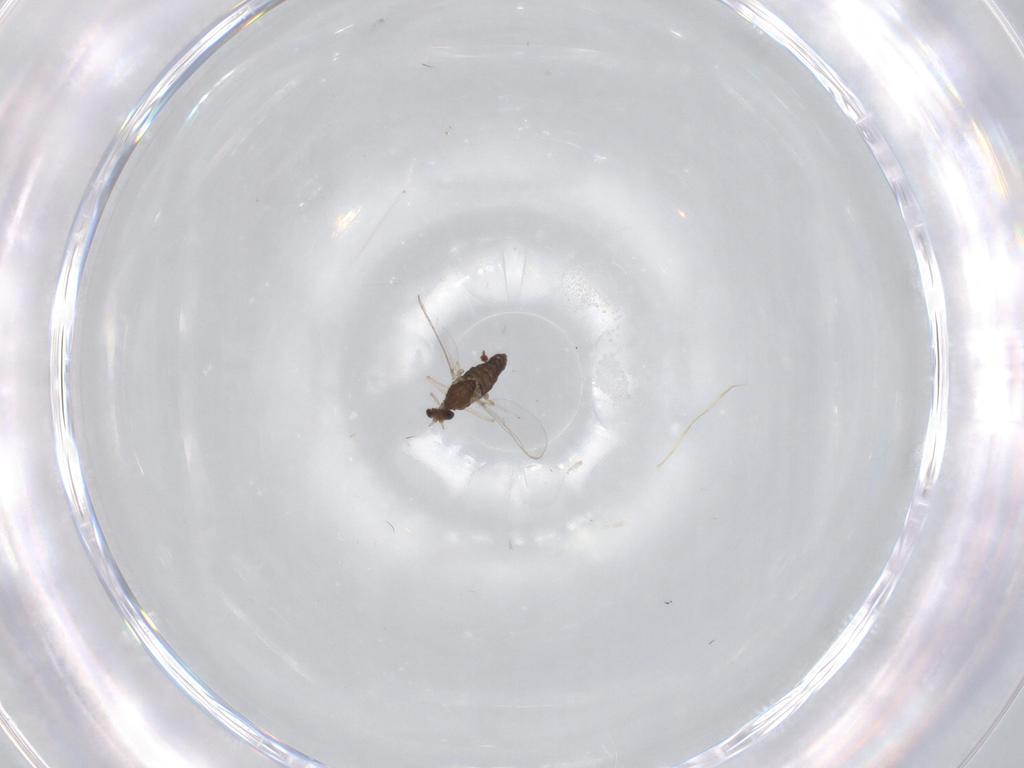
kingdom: Animalia
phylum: Arthropoda
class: Insecta
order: Diptera
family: Chironomidae
